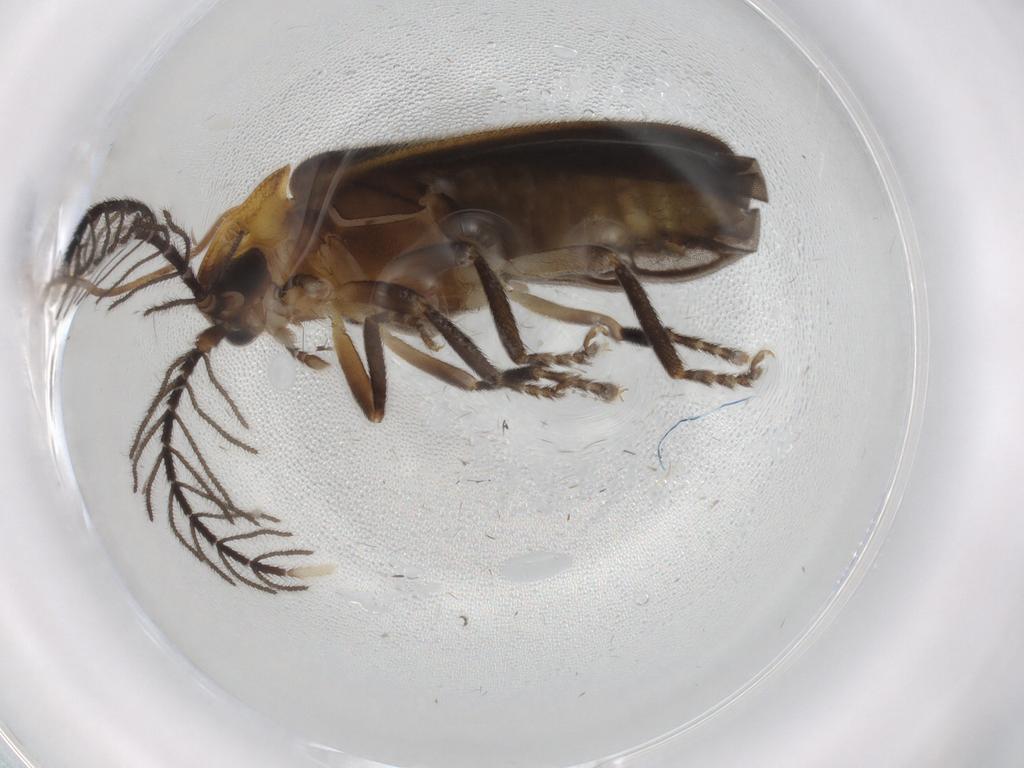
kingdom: Animalia
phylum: Arthropoda
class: Insecta
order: Coleoptera
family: Lampyridae
